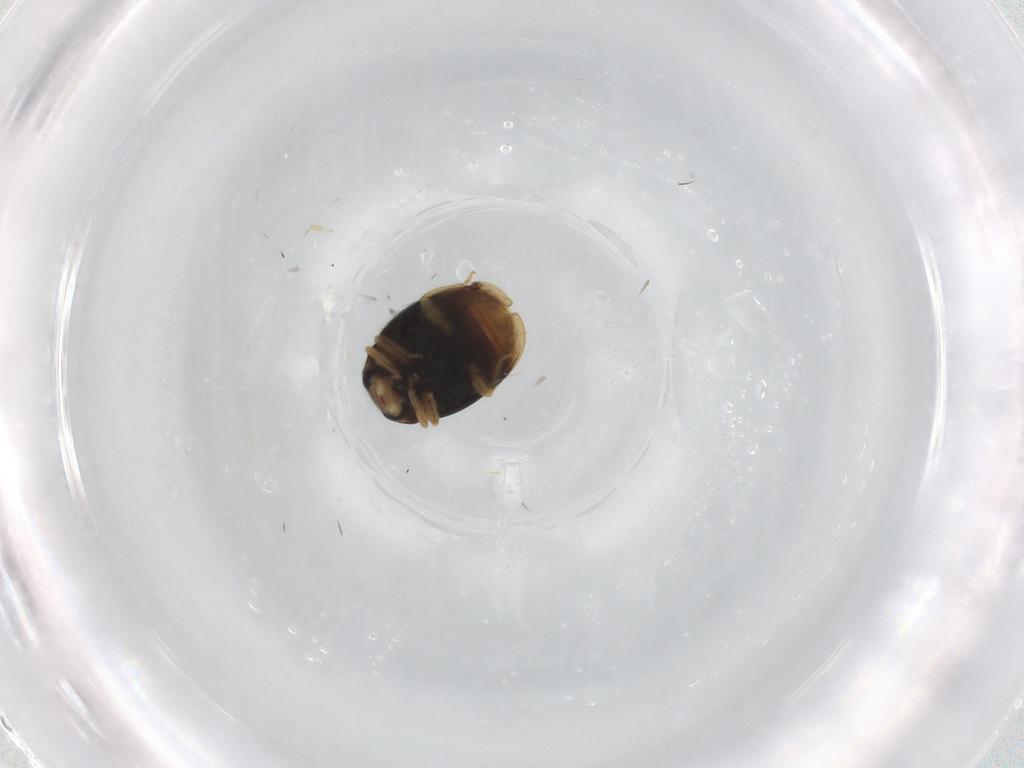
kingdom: Animalia
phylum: Arthropoda
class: Insecta
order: Coleoptera
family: Coccinellidae
